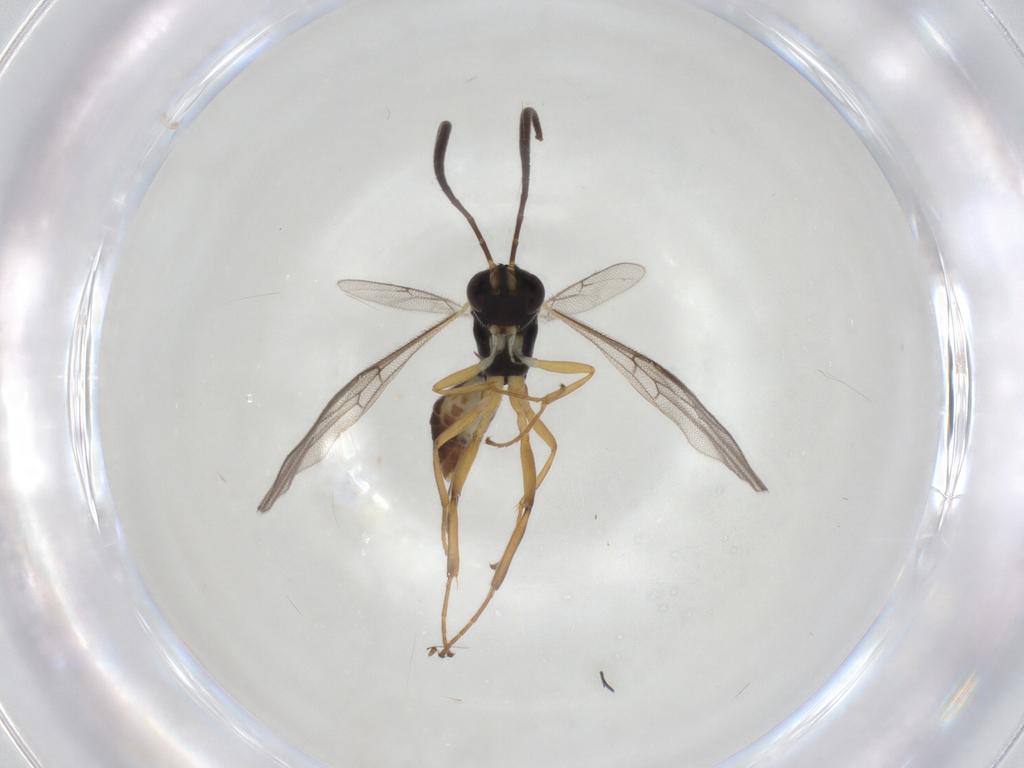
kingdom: Animalia
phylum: Arthropoda
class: Insecta
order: Hymenoptera
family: Ichneumonidae
